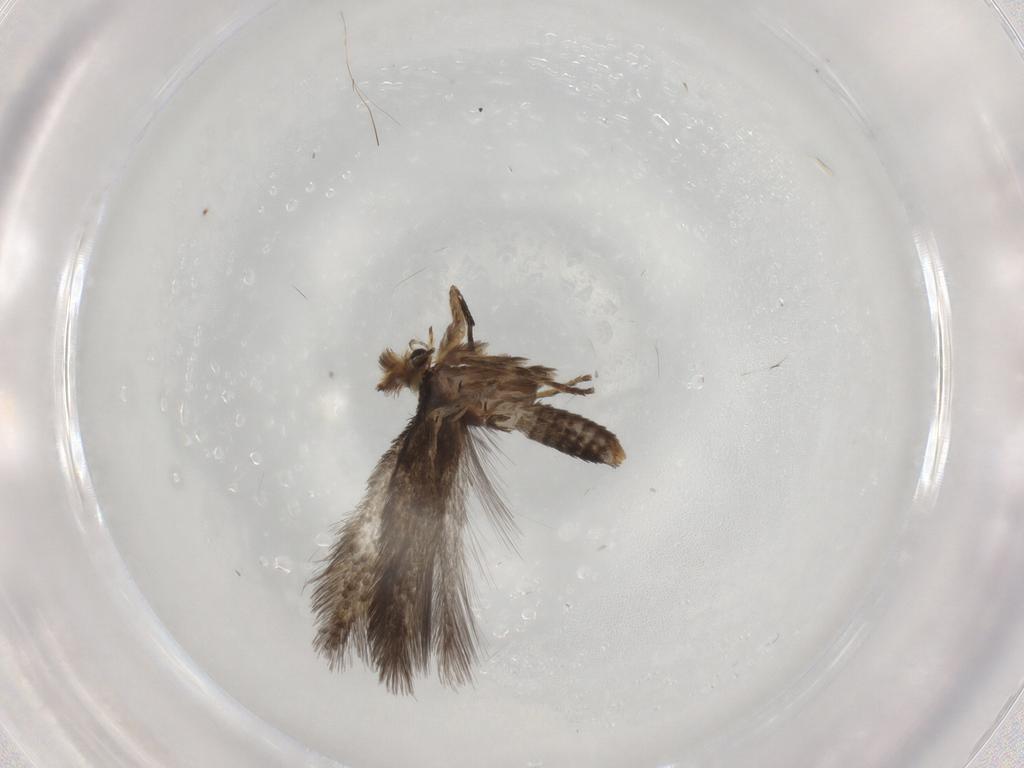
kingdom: Animalia
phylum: Arthropoda
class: Insecta
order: Lepidoptera
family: Nepticulidae
